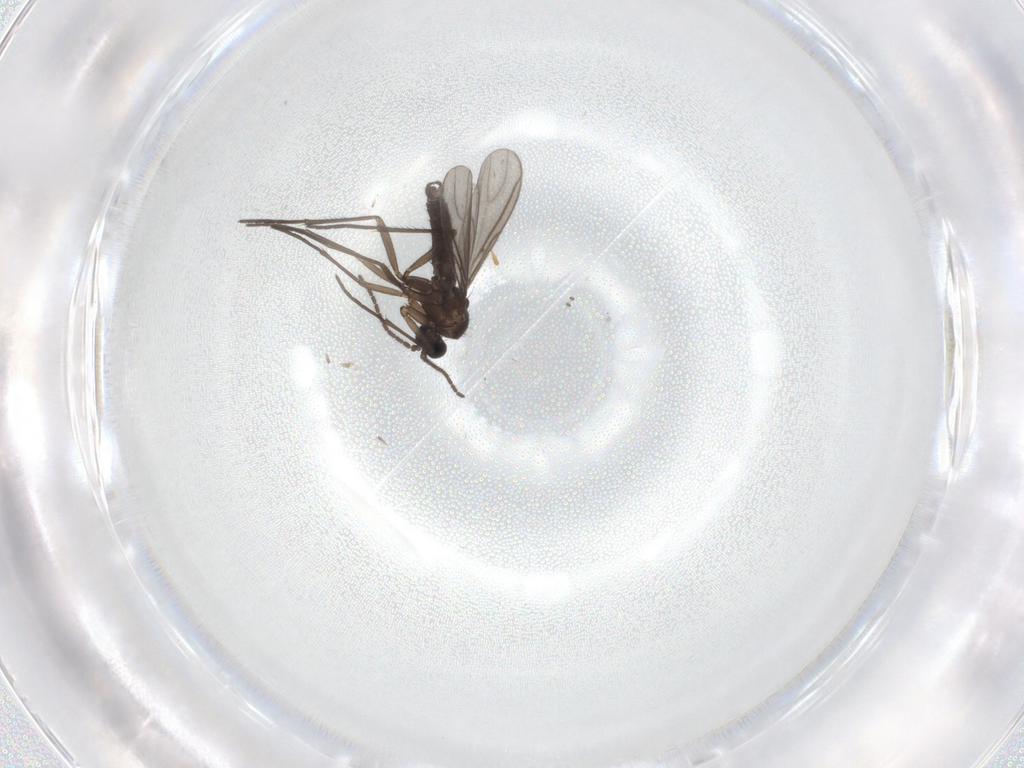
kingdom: Animalia
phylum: Arthropoda
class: Insecta
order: Diptera
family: Sciaridae
